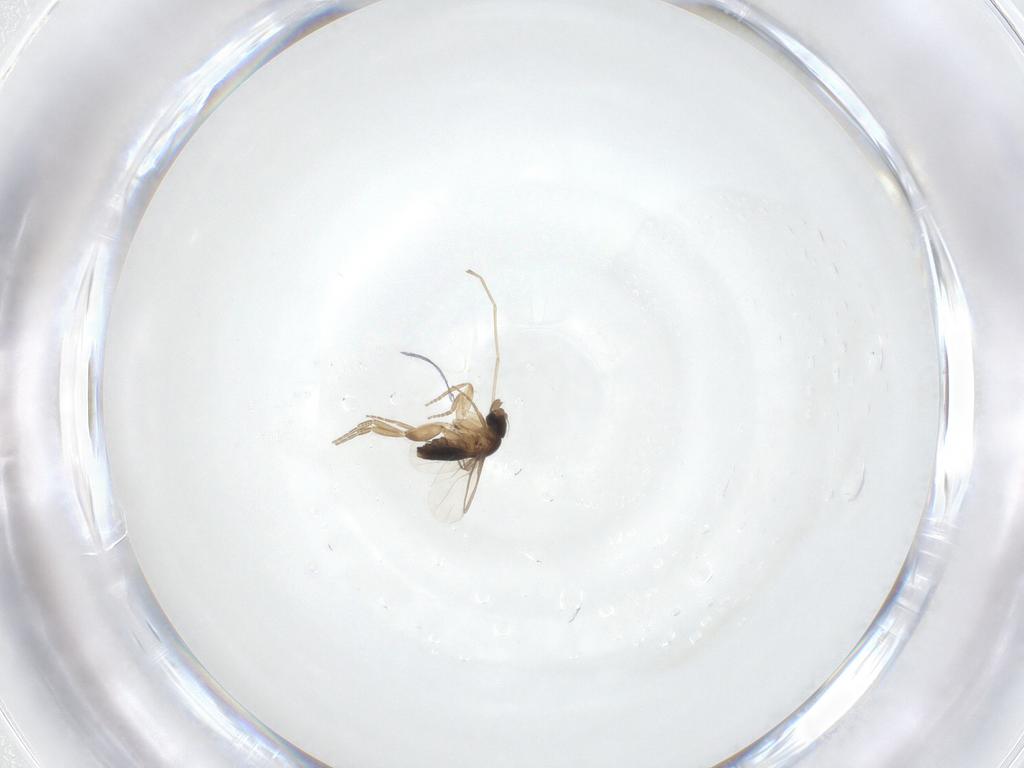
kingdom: Animalia
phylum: Arthropoda
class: Insecta
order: Diptera
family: Cecidomyiidae
